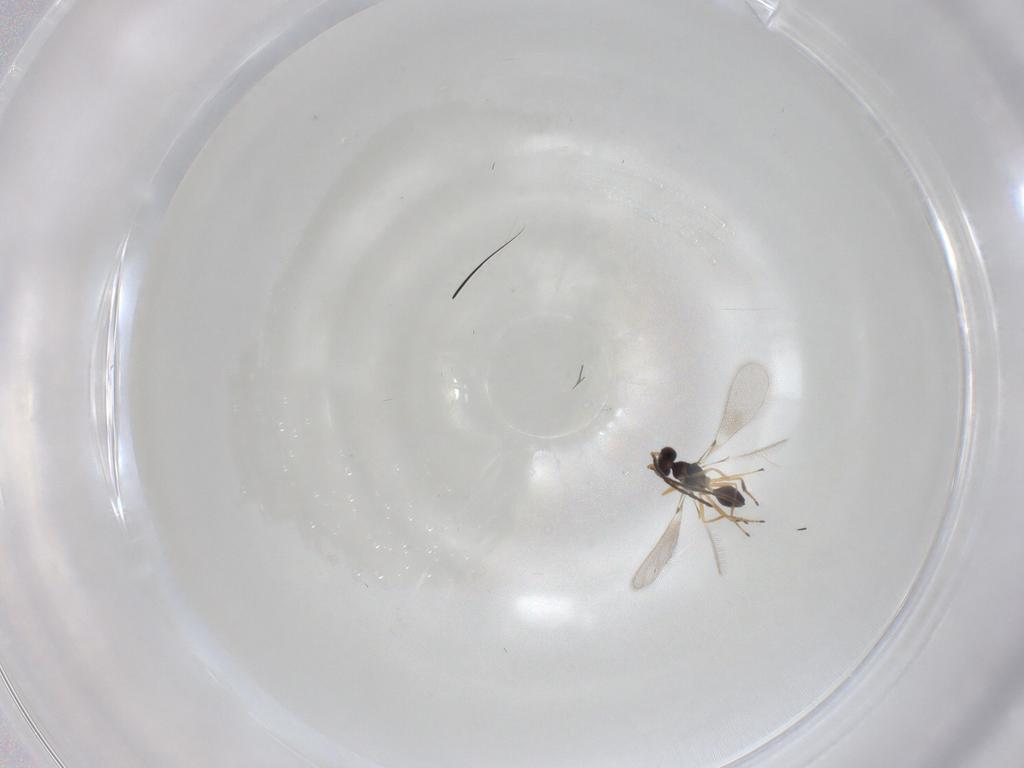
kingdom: Animalia
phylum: Arthropoda
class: Insecta
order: Hymenoptera
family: Mymaridae
